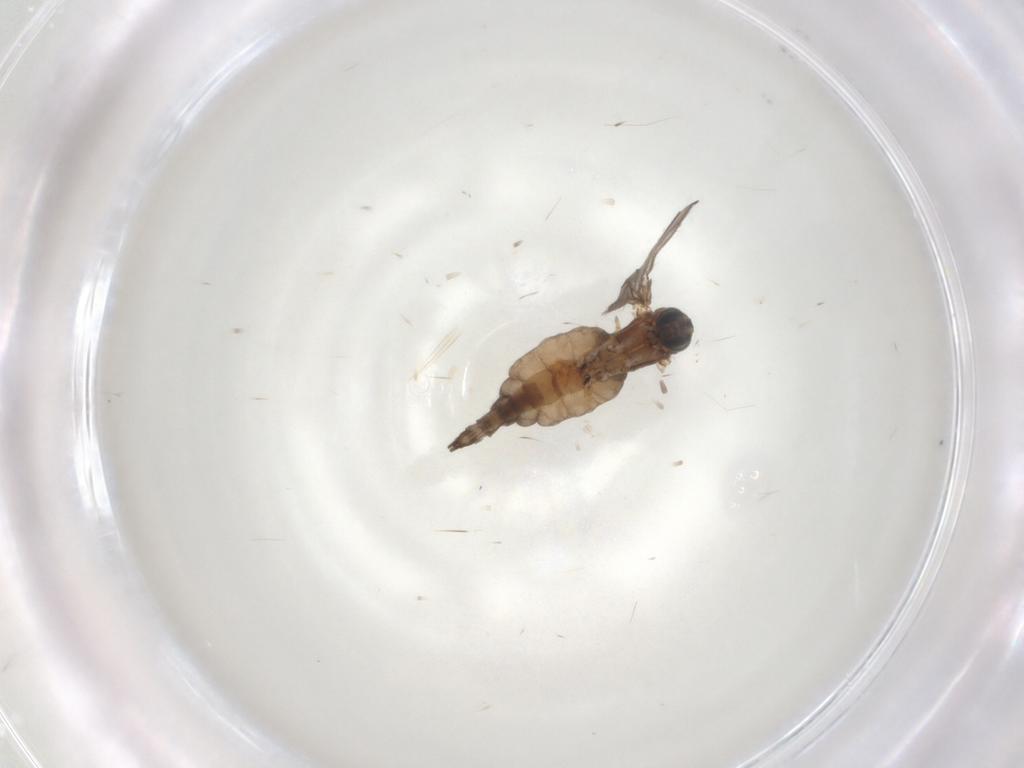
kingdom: Animalia
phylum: Arthropoda
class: Insecta
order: Diptera
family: Sciaridae
